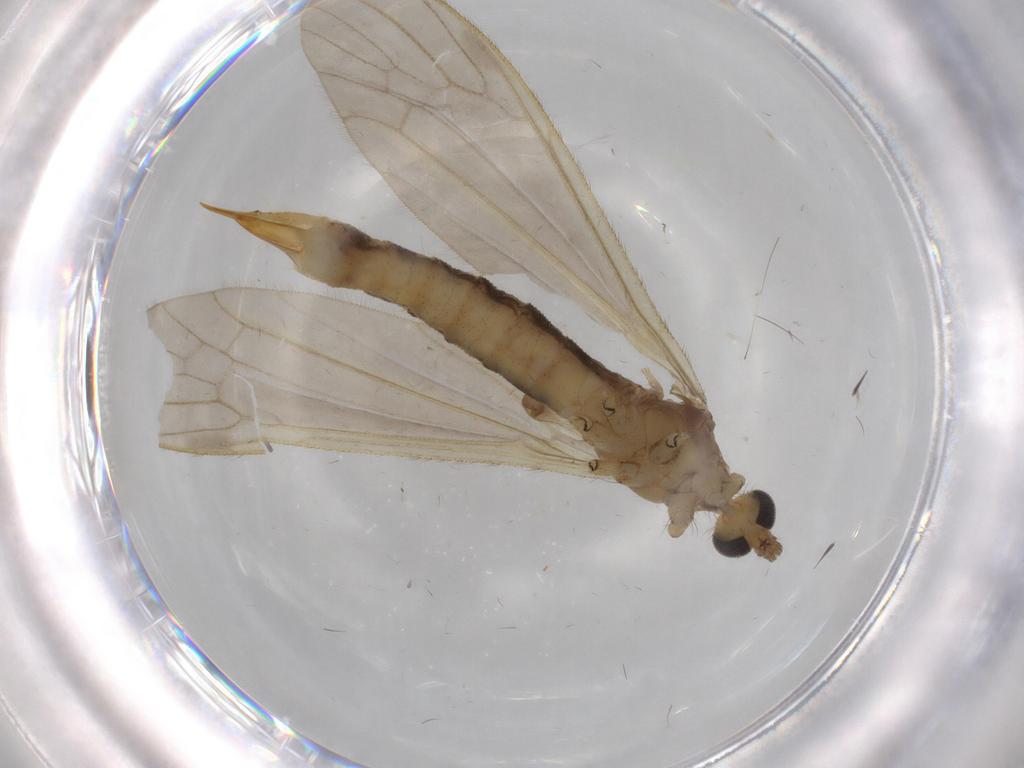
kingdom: Animalia
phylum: Arthropoda
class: Insecta
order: Diptera
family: Chironomidae
